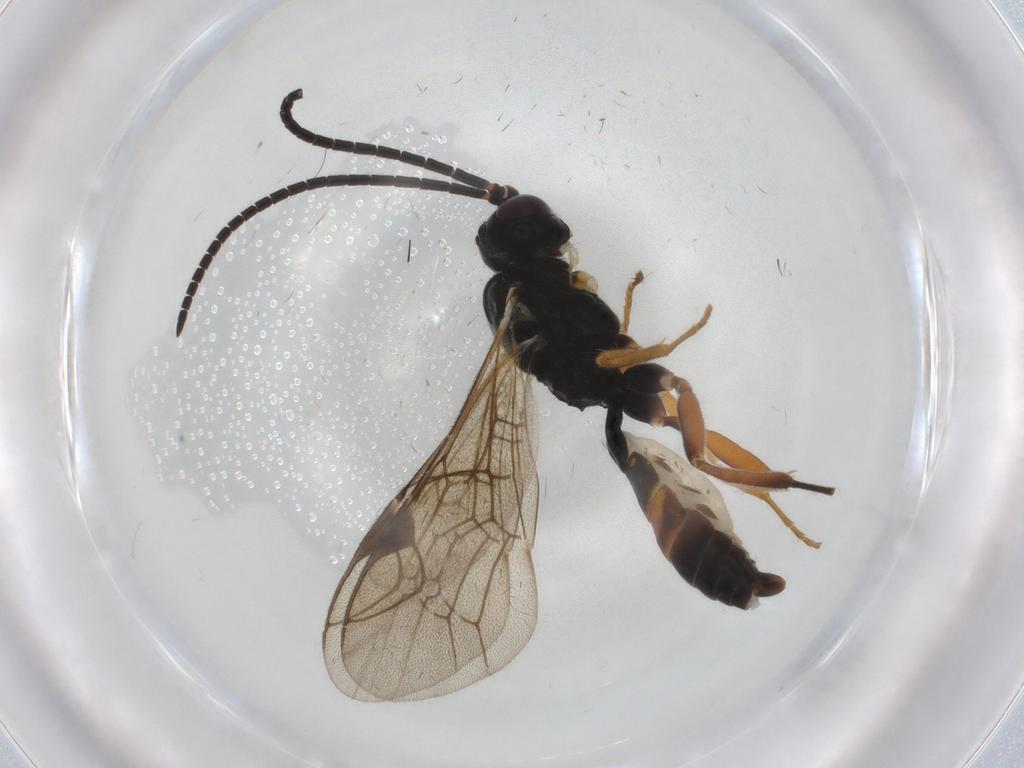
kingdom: Animalia
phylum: Arthropoda
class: Insecta
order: Hymenoptera
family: Ichneumonidae
